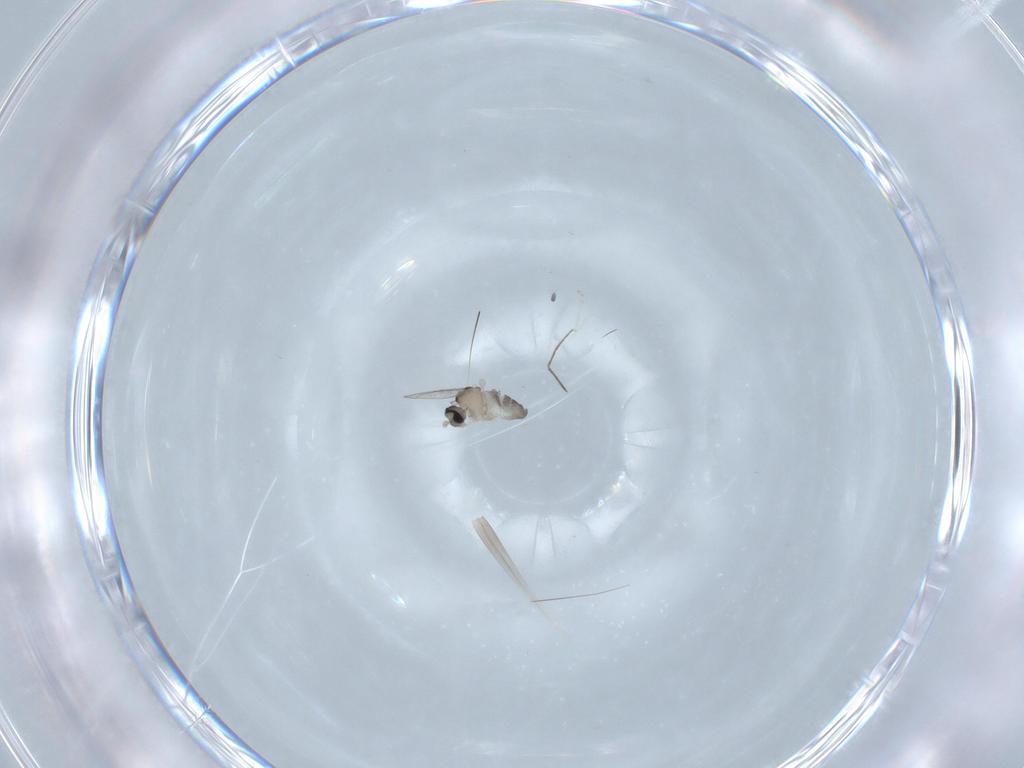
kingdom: Animalia
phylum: Arthropoda
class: Insecta
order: Diptera
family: Cecidomyiidae
